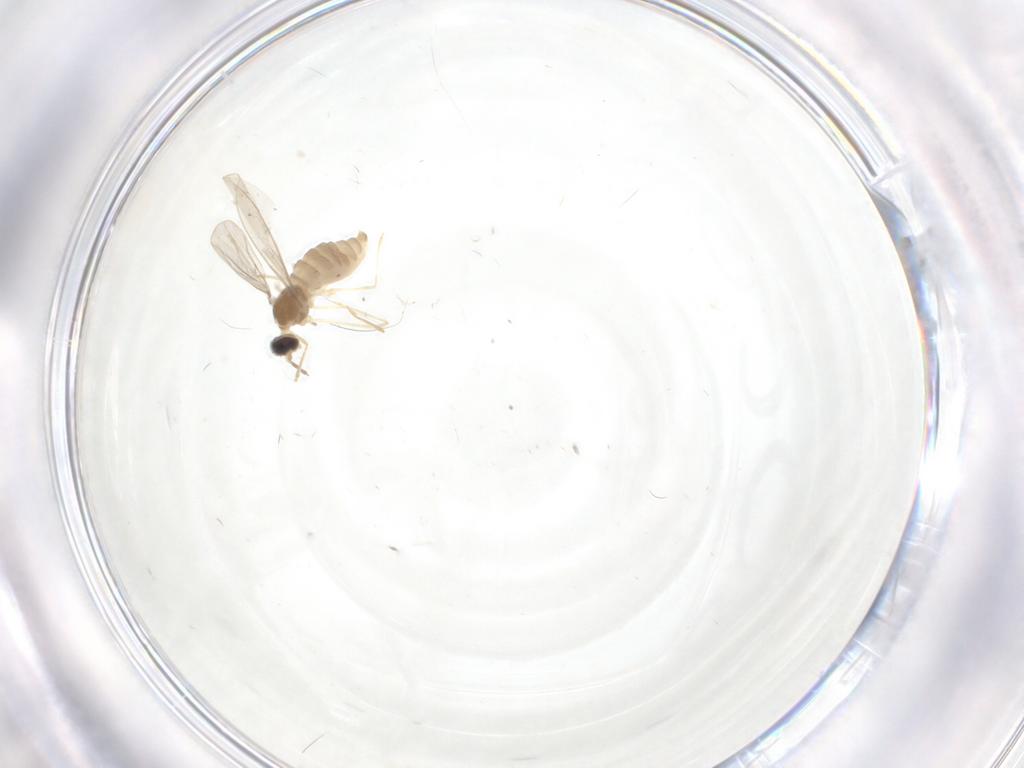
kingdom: Animalia
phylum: Arthropoda
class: Insecta
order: Diptera
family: Cecidomyiidae
